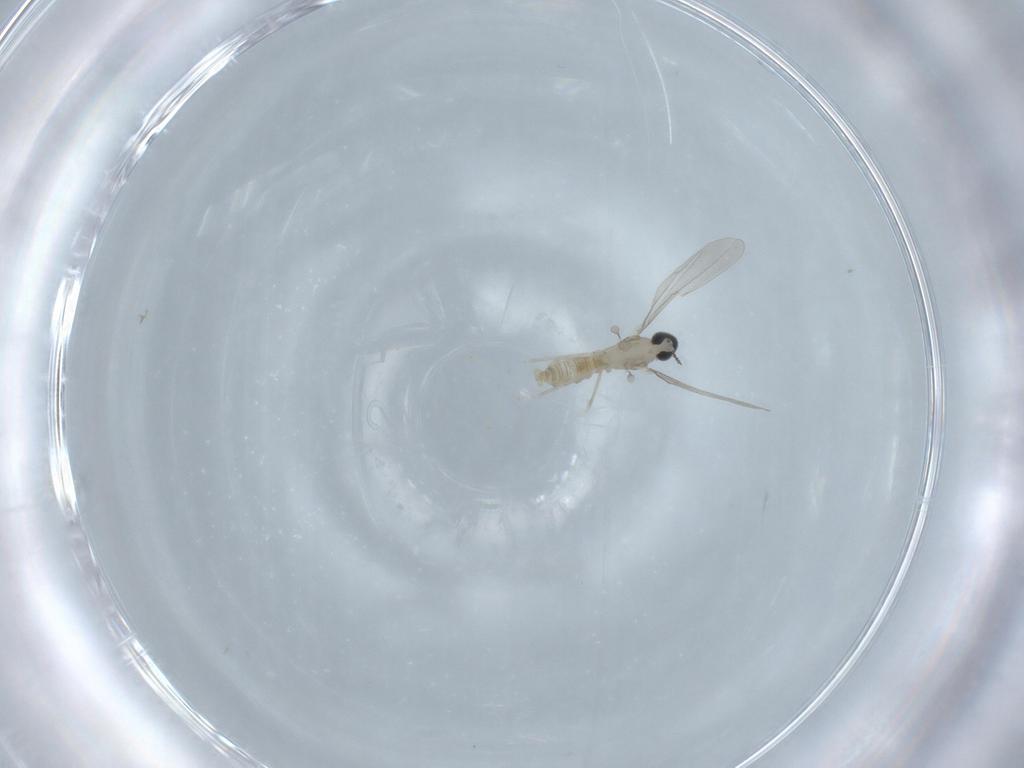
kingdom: Animalia
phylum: Arthropoda
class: Insecta
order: Diptera
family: Cecidomyiidae
